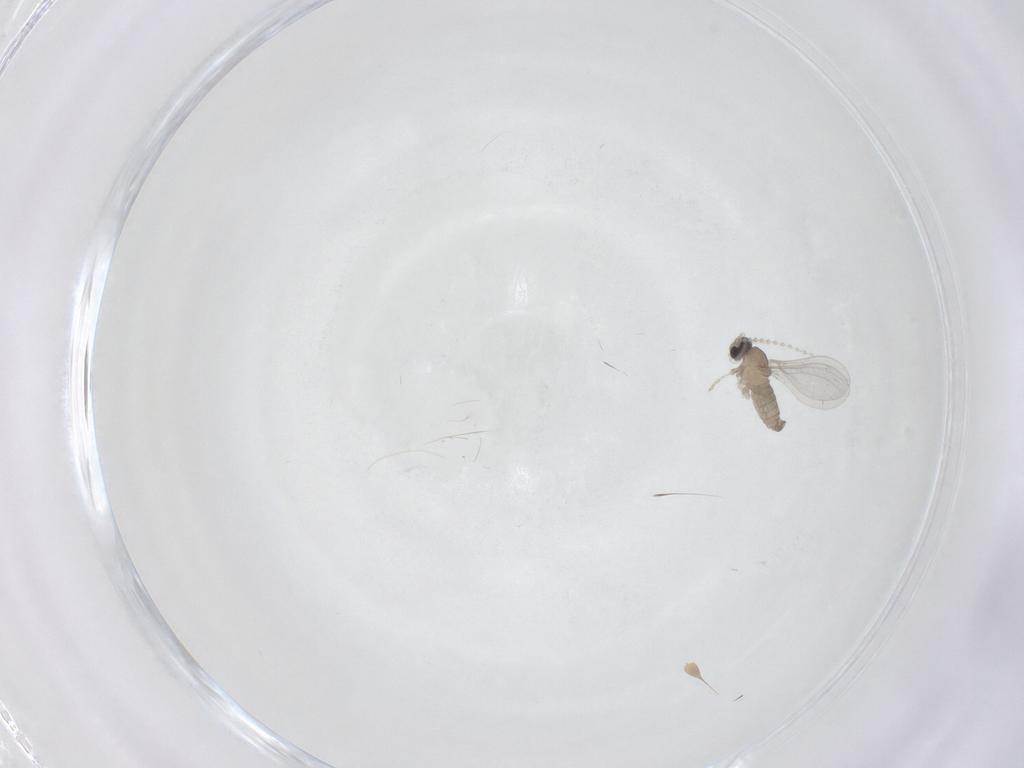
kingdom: Animalia
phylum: Arthropoda
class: Insecta
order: Diptera
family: Cecidomyiidae
